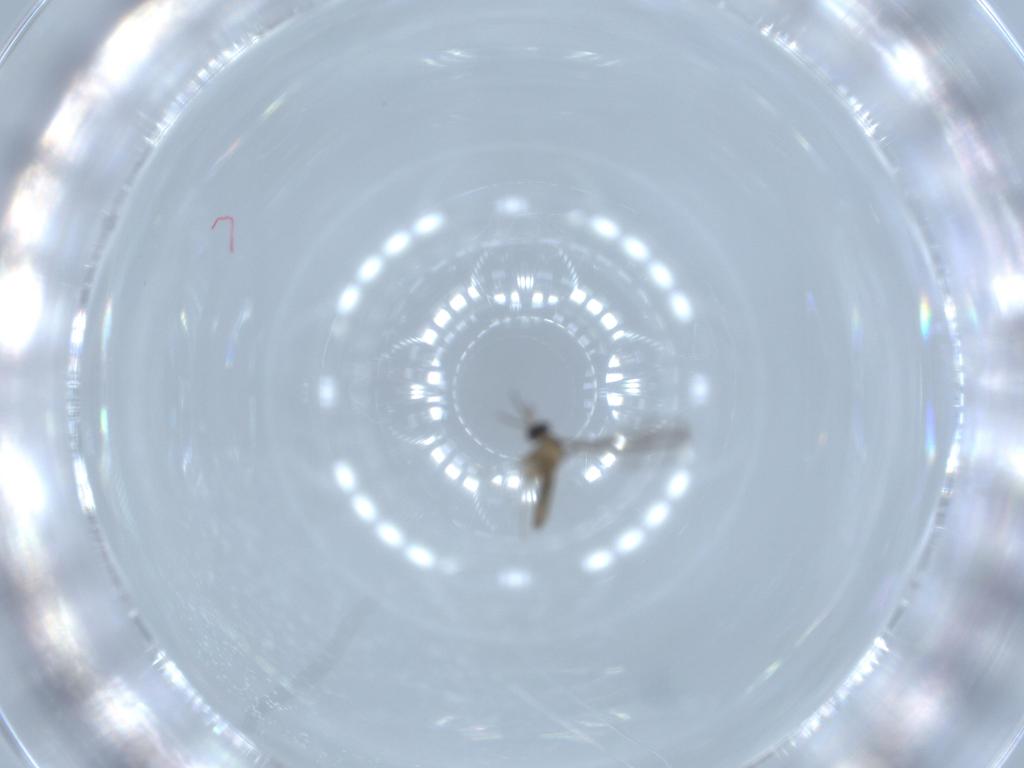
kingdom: Animalia
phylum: Arthropoda
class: Insecta
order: Diptera
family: Cecidomyiidae
